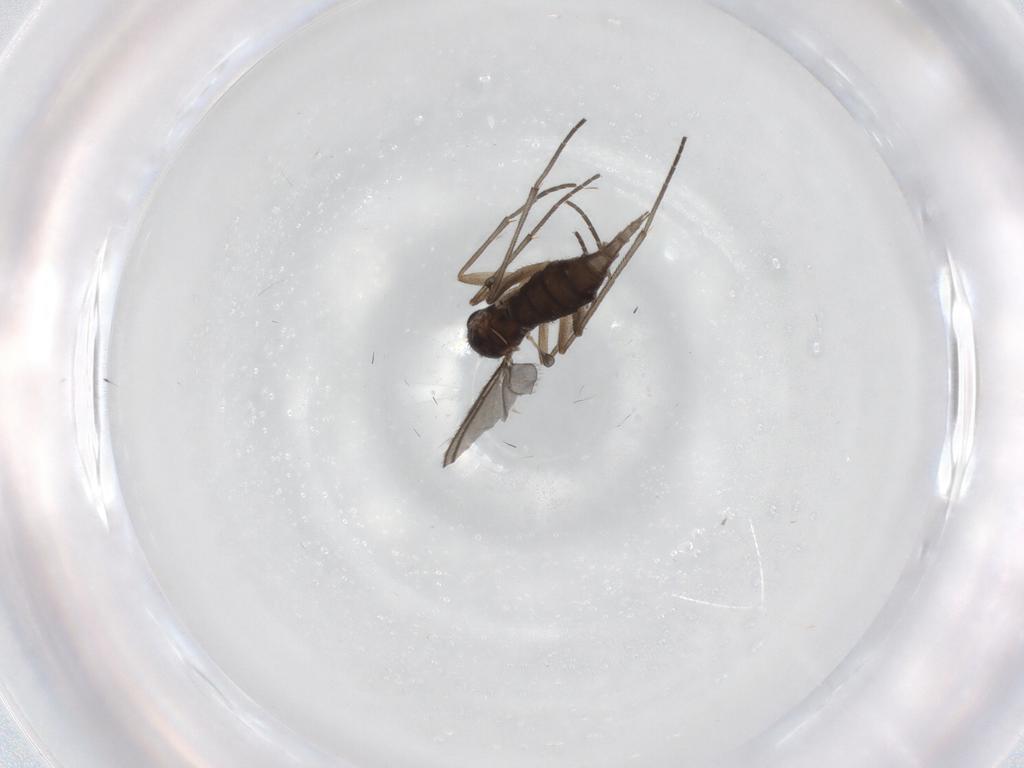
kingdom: Animalia
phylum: Arthropoda
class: Insecta
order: Diptera
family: Sciaridae
